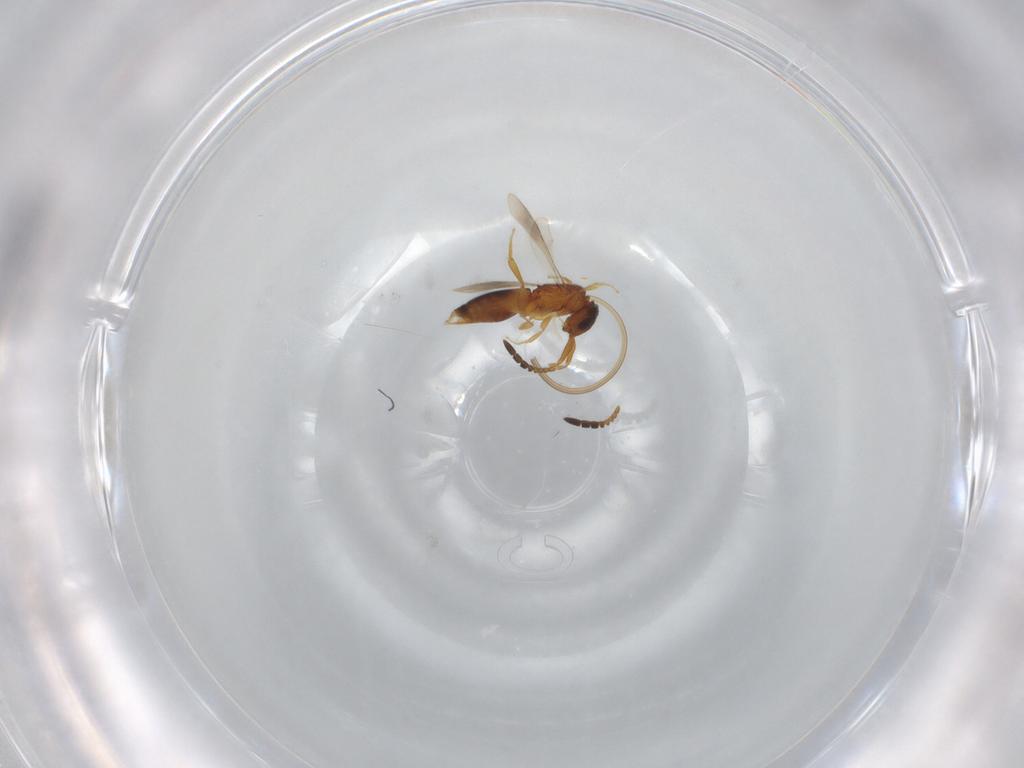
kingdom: Animalia
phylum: Arthropoda
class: Insecta
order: Hymenoptera
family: Ceraphronidae
